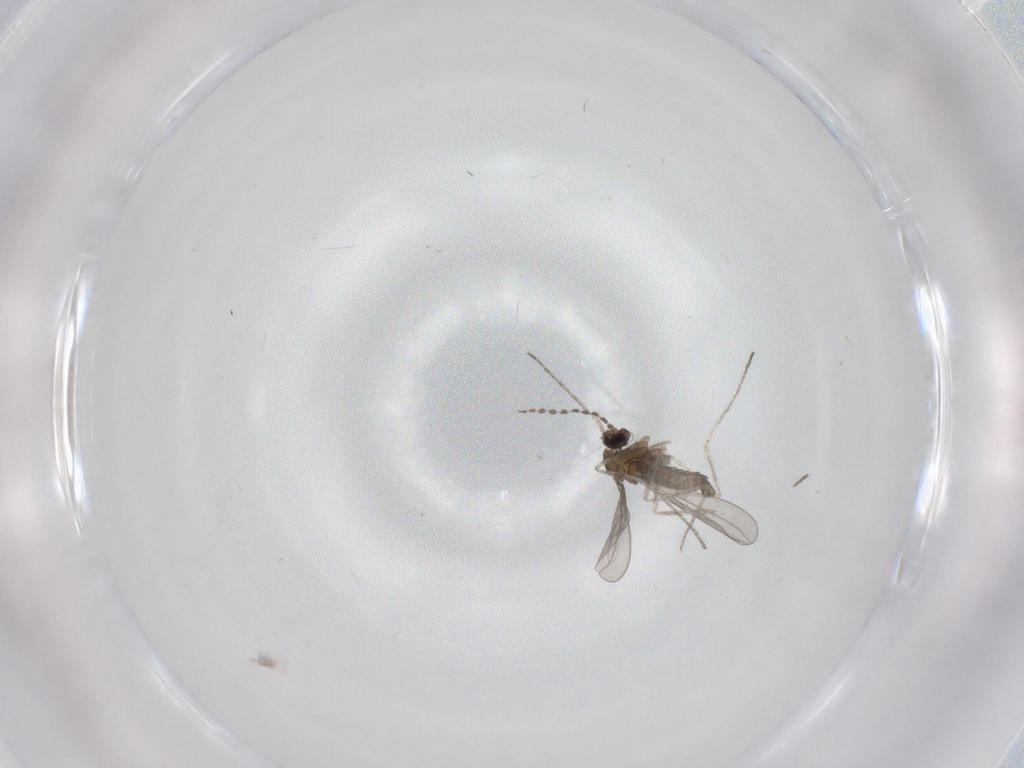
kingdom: Animalia
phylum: Arthropoda
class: Insecta
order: Diptera
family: Cecidomyiidae
